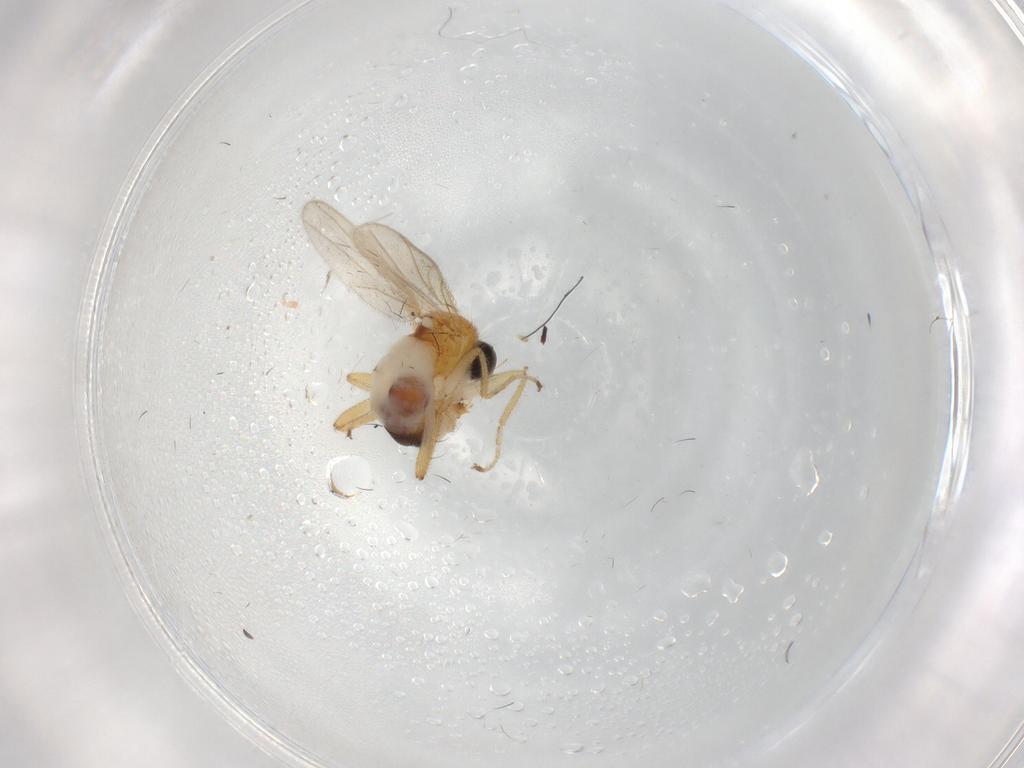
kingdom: Animalia
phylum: Arthropoda
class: Insecta
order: Diptera
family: Hybotidae
